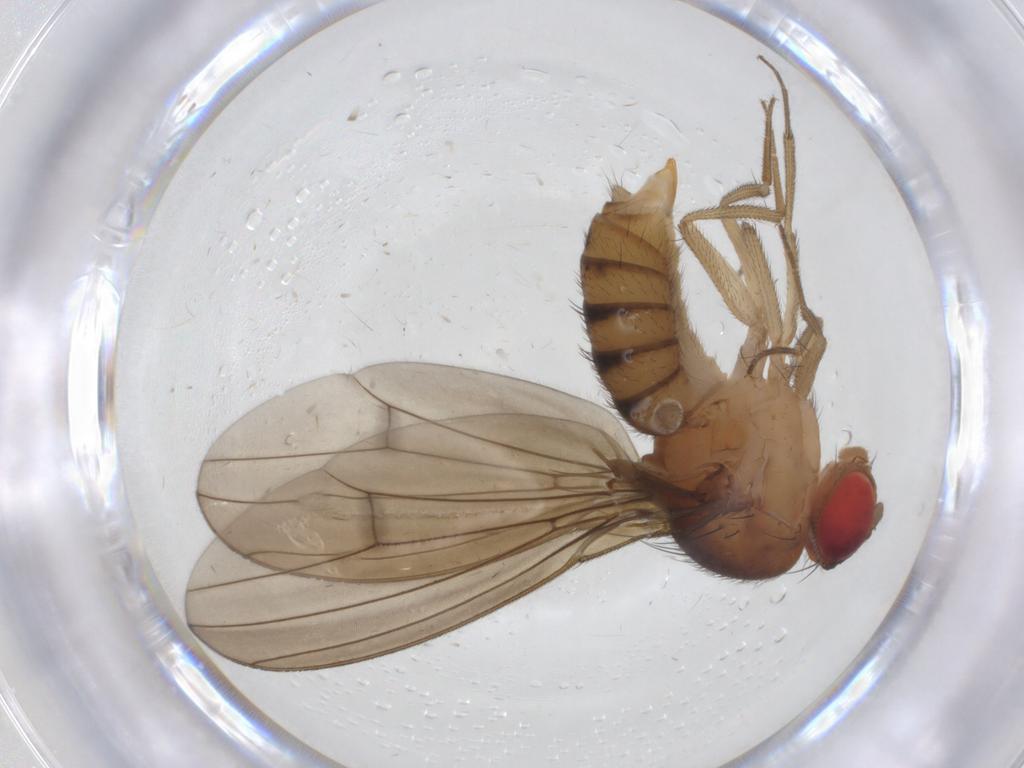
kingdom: Animalia
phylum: Arthropoda
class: Insecta
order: Diptera
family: Drosophilidae
